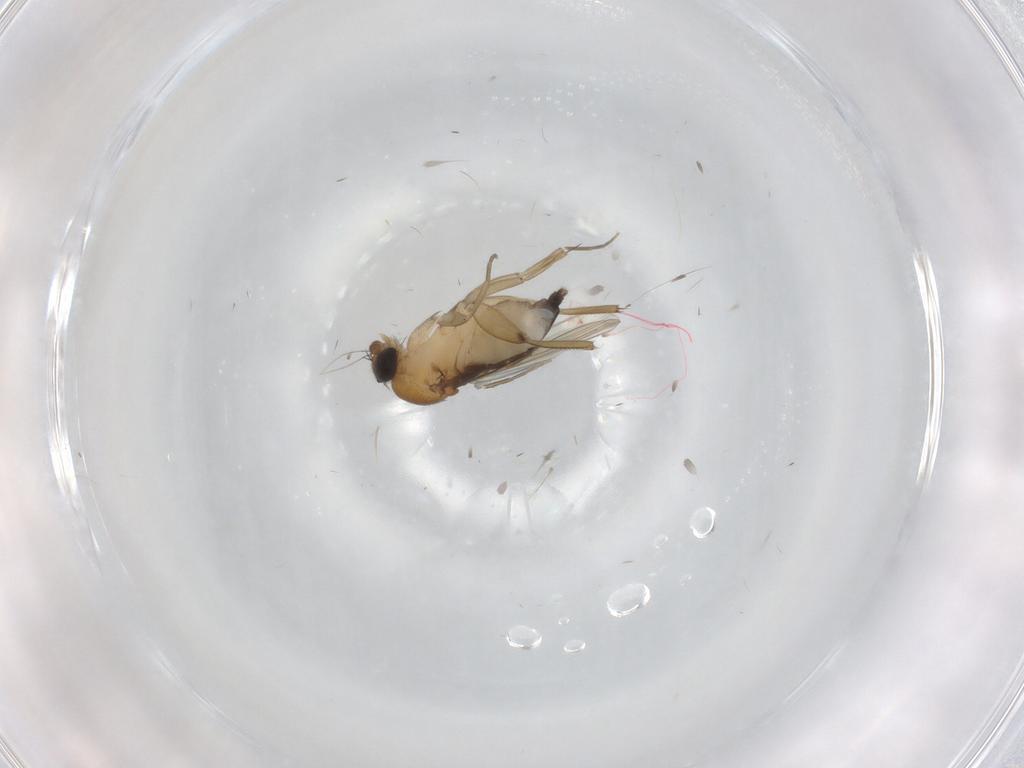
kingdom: Animalia
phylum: Arthropoda
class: Insecta
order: Diptera
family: Phoridae
